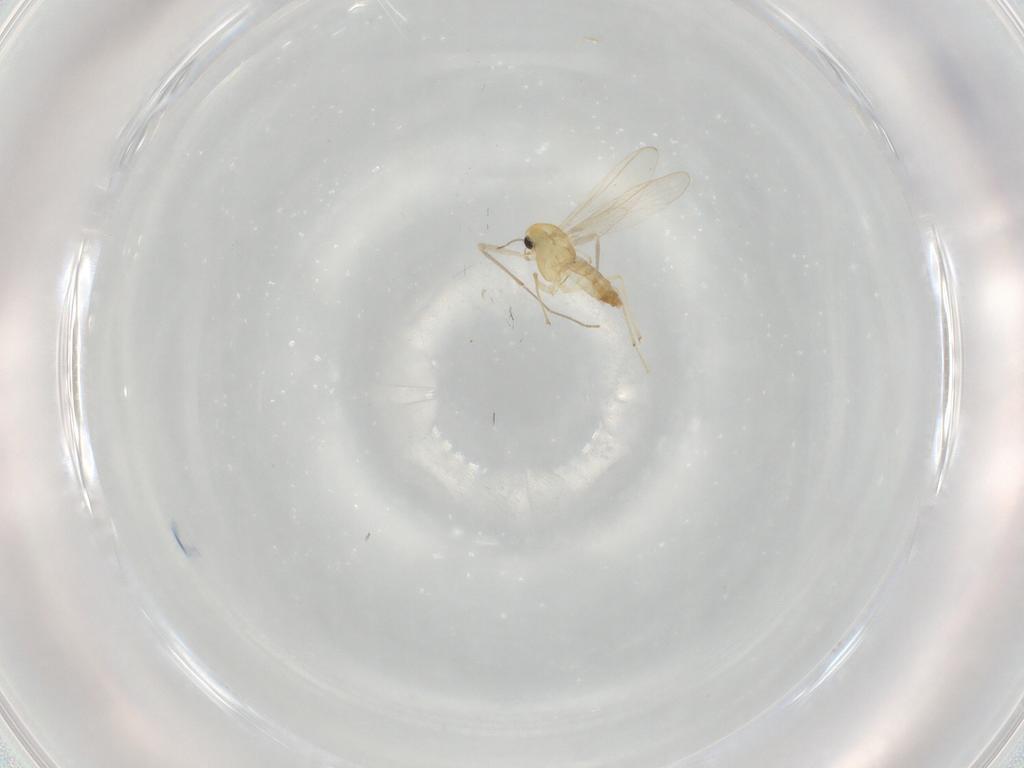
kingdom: Animalia
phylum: Arthropoda
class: Insecta
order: Diptera
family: Chironomidae
